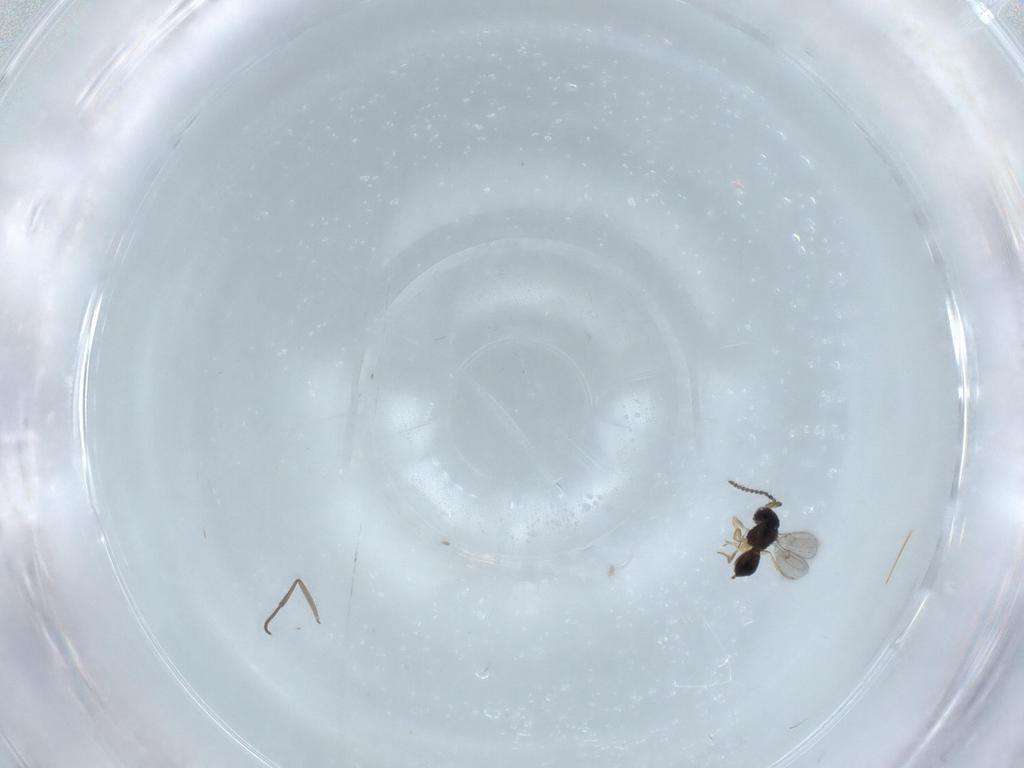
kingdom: Animalia
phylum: Arthropoda
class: Insecta
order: Hymenoptera
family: Scelionidae
